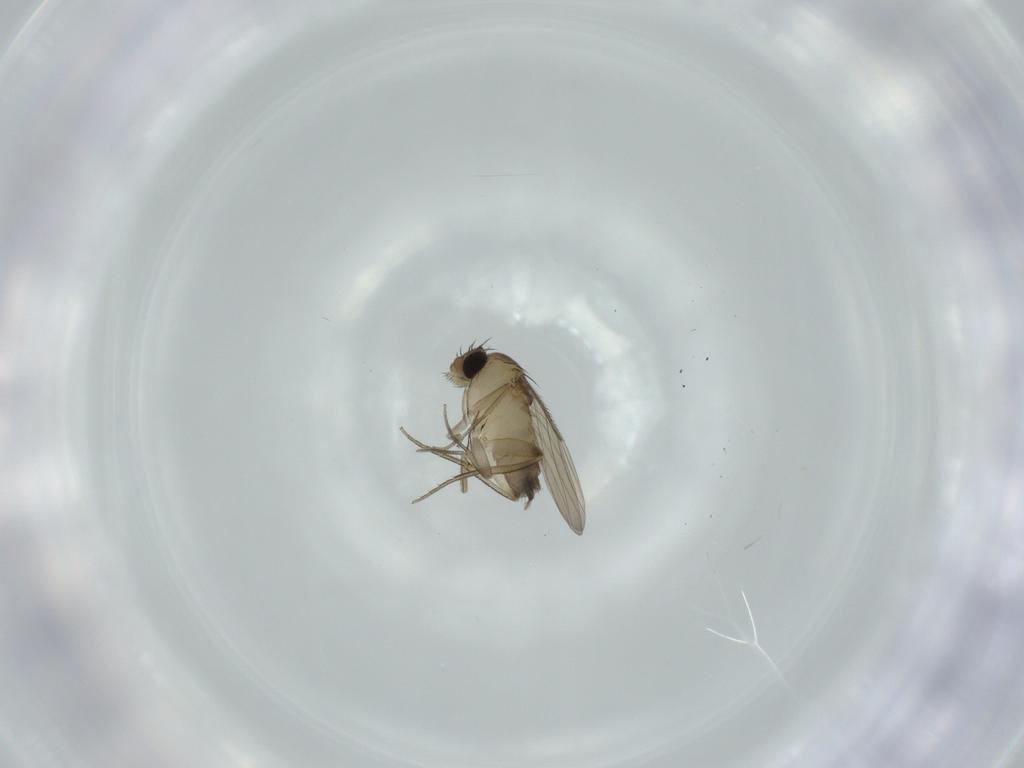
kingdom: Animalia
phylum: Arthropoda
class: Insecta
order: Diptera
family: Phoridae
